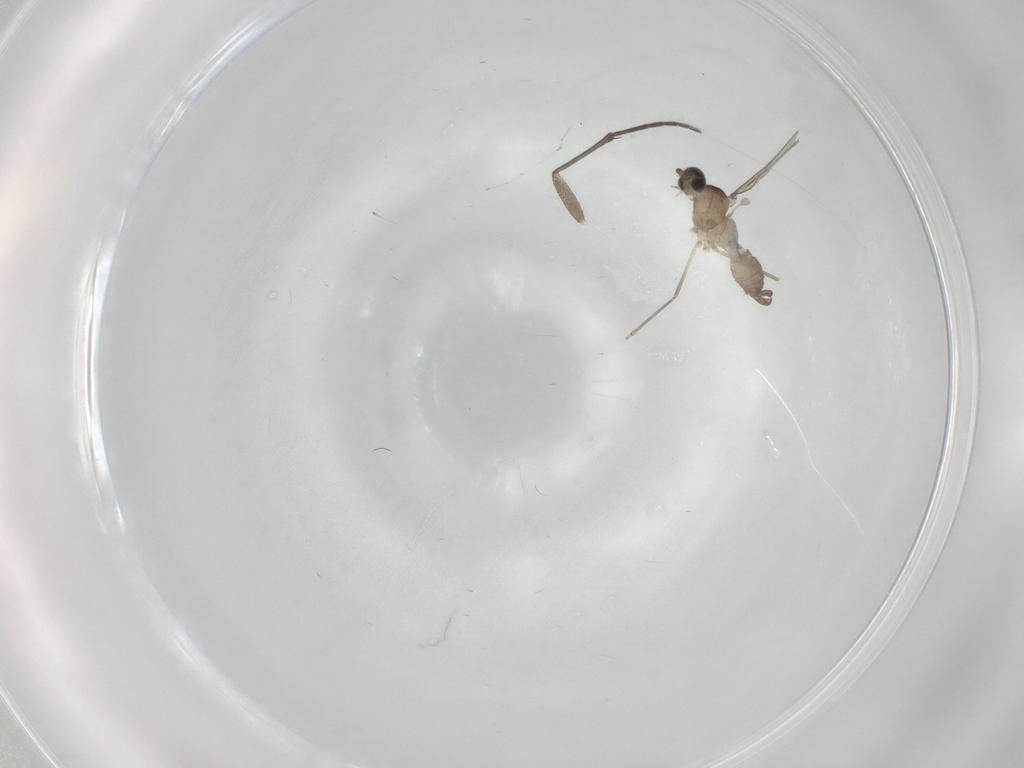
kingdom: Animalia
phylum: Arthropoda
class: Insecta
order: Diptera
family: Sciaridae
